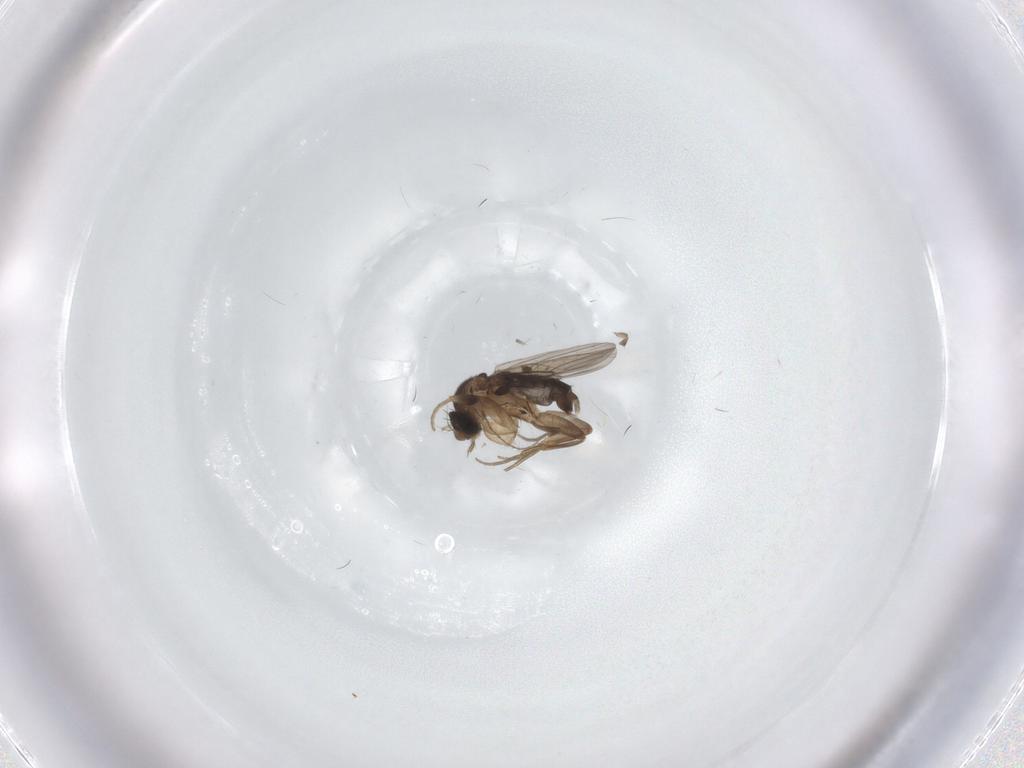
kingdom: Animalia
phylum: Arthropoda
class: Insecta
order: Diptera
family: Phoridae
